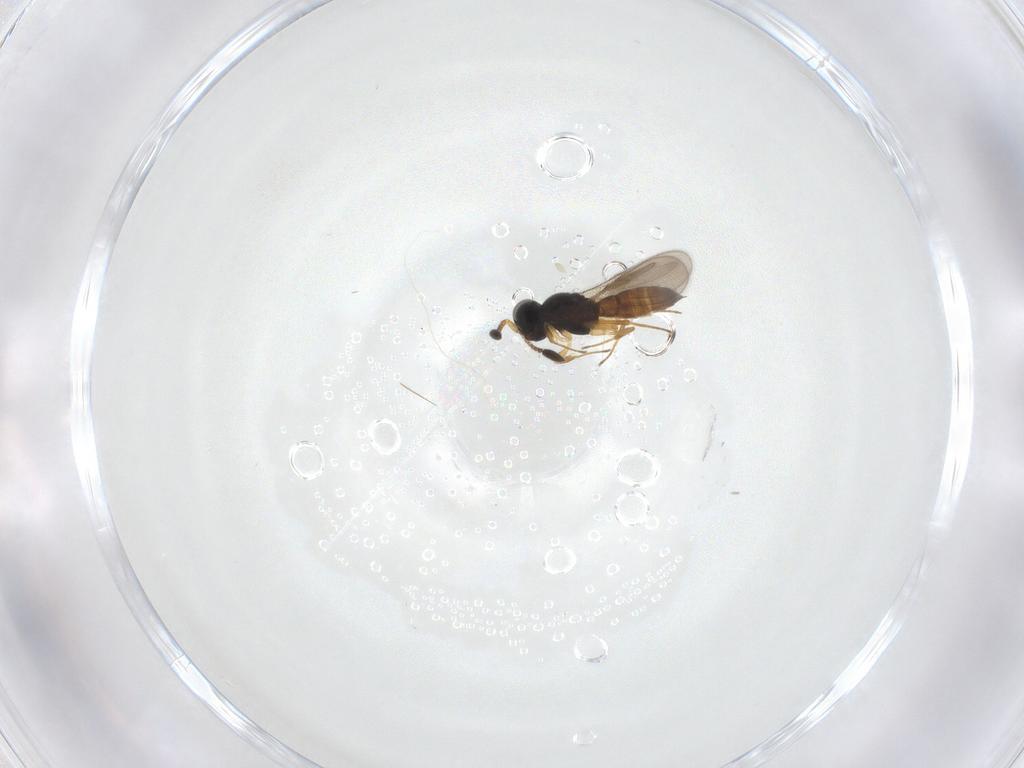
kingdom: Animalia
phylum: Arthropoda
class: Insecta
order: Hymenoptera
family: Scelionidae
